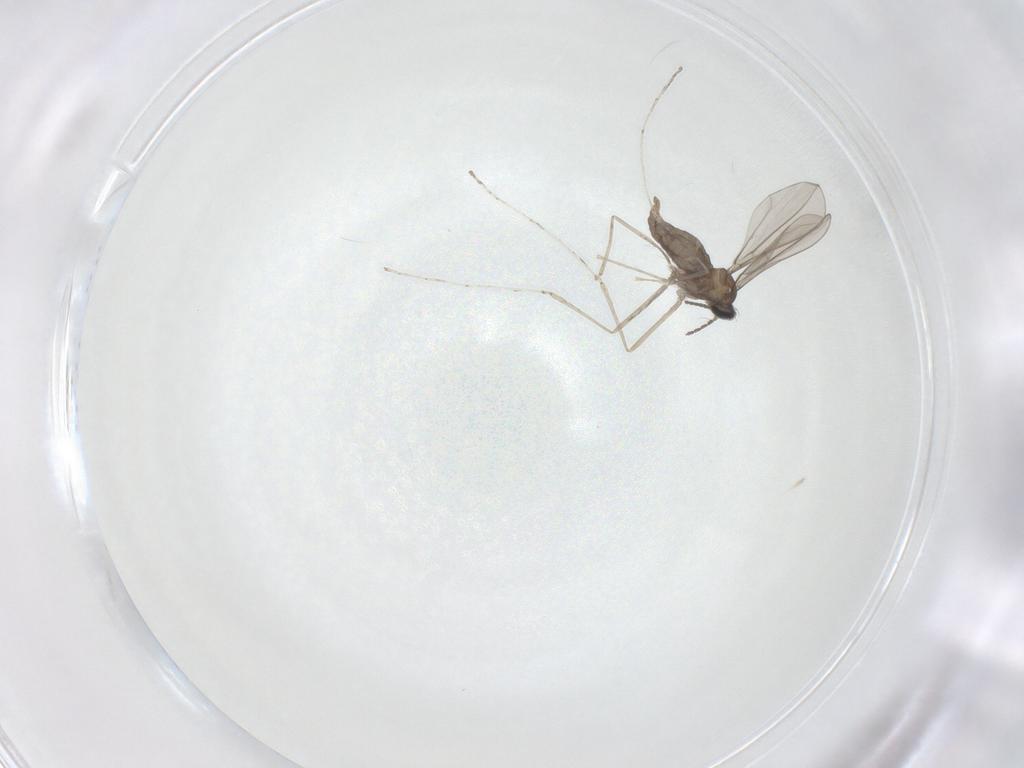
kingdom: Animalia
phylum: Arthropoda
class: Insecta
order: Diptera
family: Cecidomyiidae
